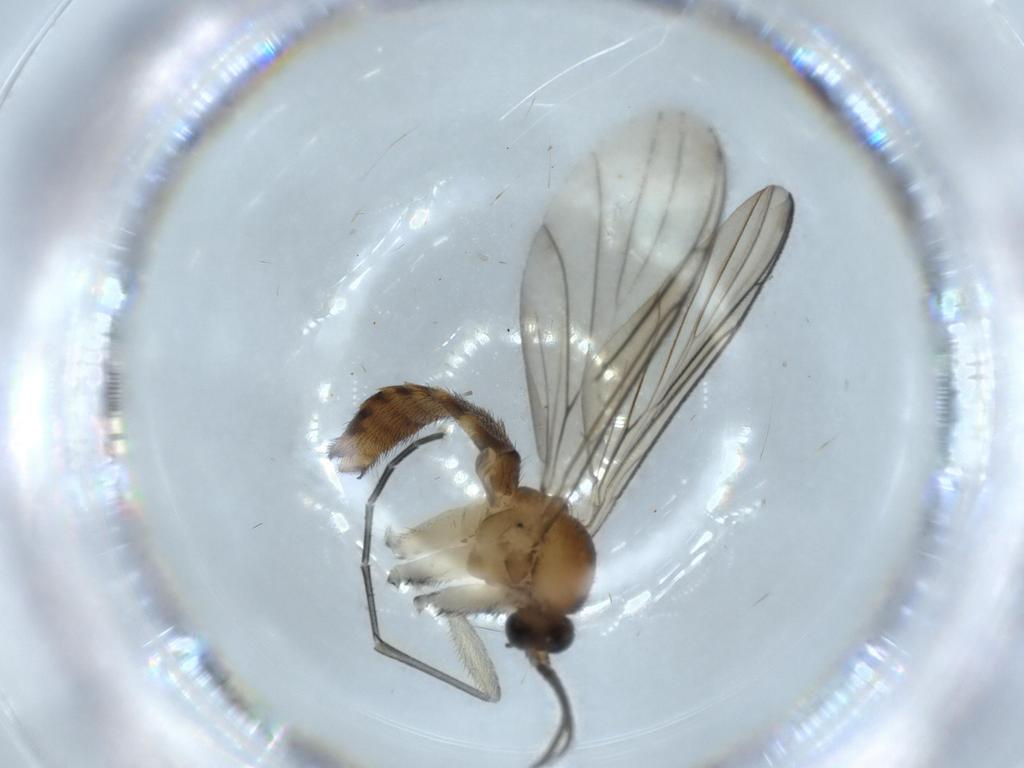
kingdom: Animalia
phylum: Arthropoda
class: Insecta
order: Diptera
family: Keroplatidae
